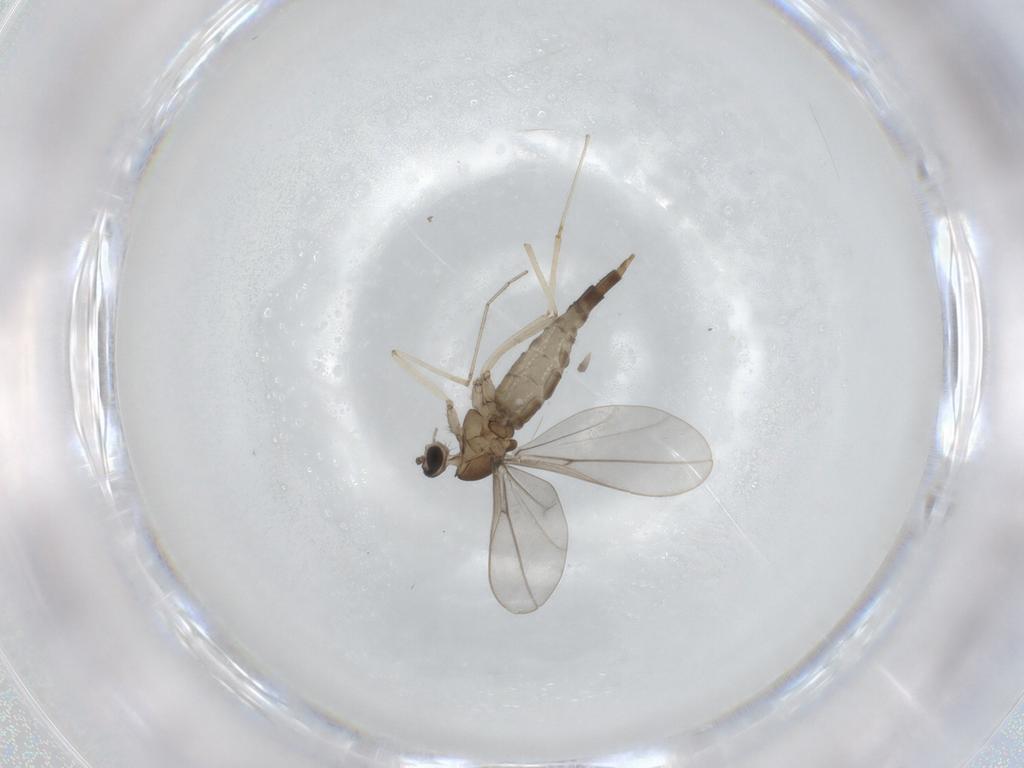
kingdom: Animalia
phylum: Arthropoda
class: Insecta
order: Diptera
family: Cecidomyiidae
